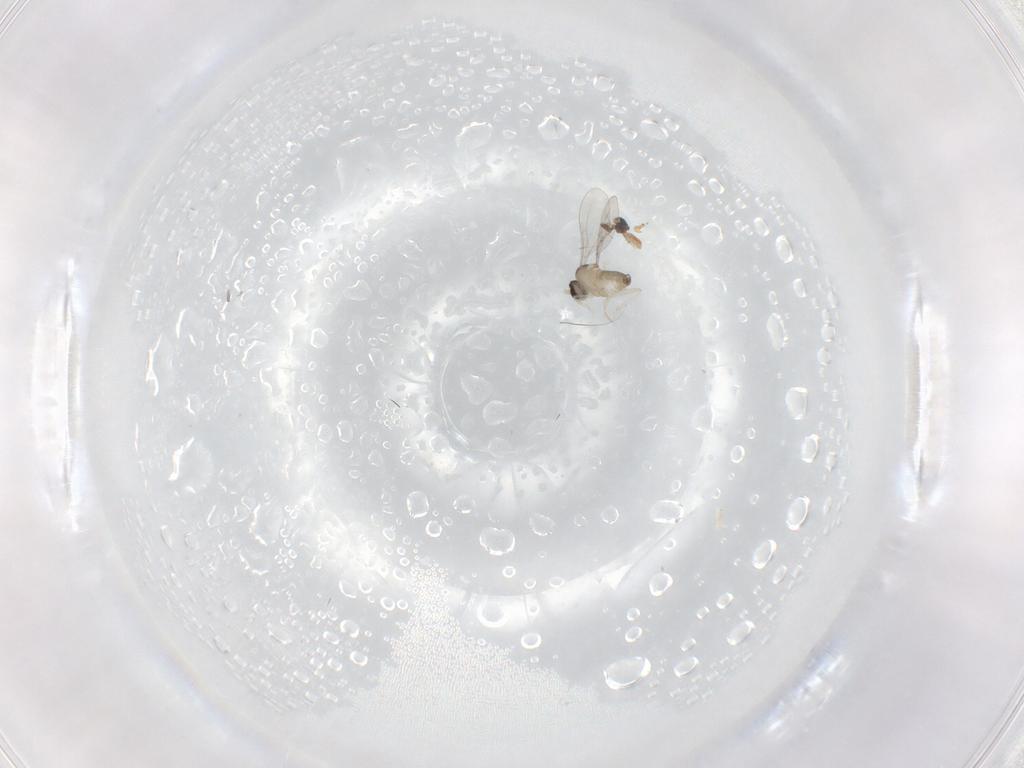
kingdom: Animalia
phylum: Arthropoda
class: Insecta
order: Diptera
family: Cecidomyiidae
